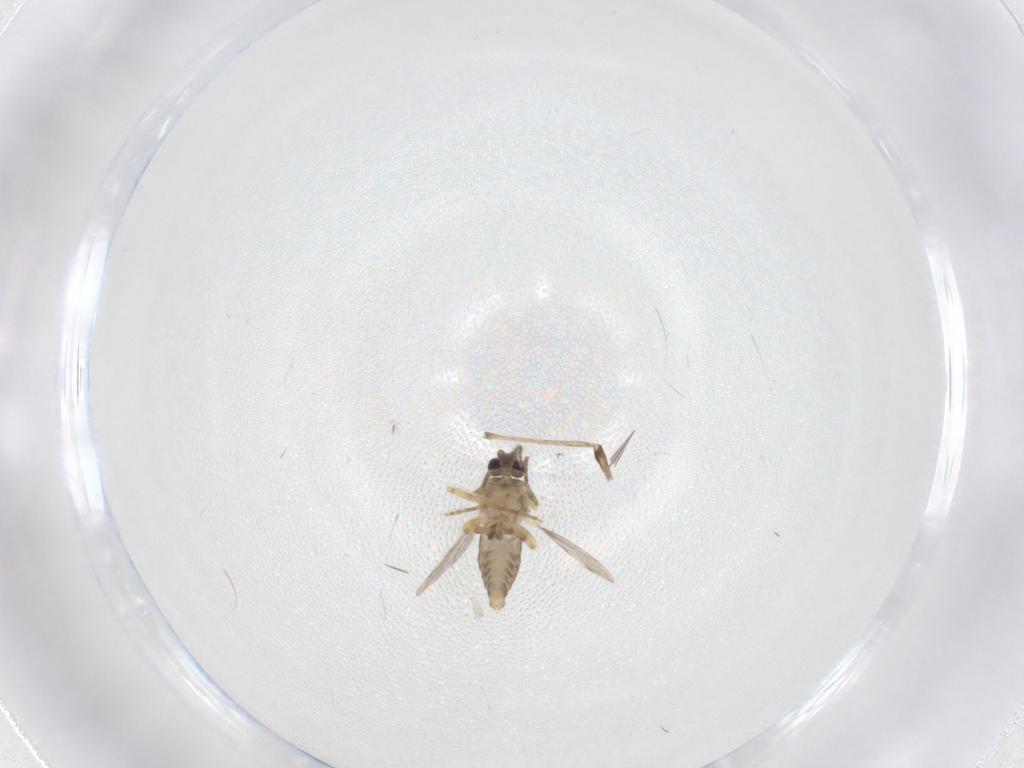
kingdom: Animalia
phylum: Arthropoda
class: Insecta
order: Diptera
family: Ceratopogonidae
